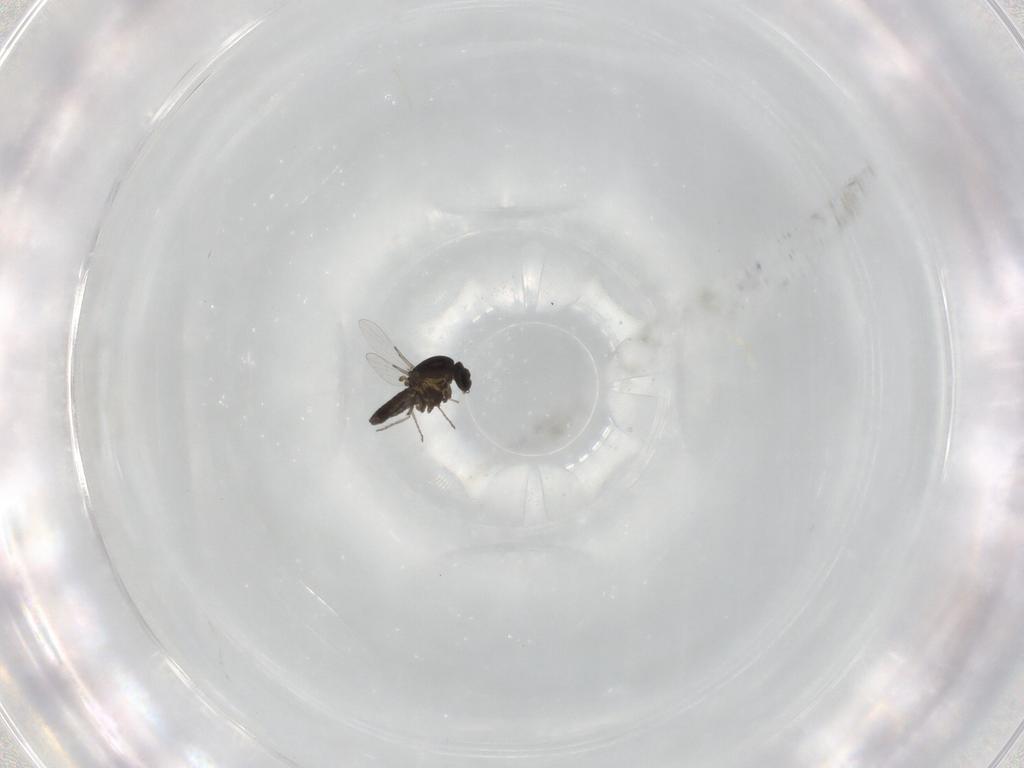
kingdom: Animalia
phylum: Arthropoda
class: Insecta
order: Diptera
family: Ceratopogonidae
